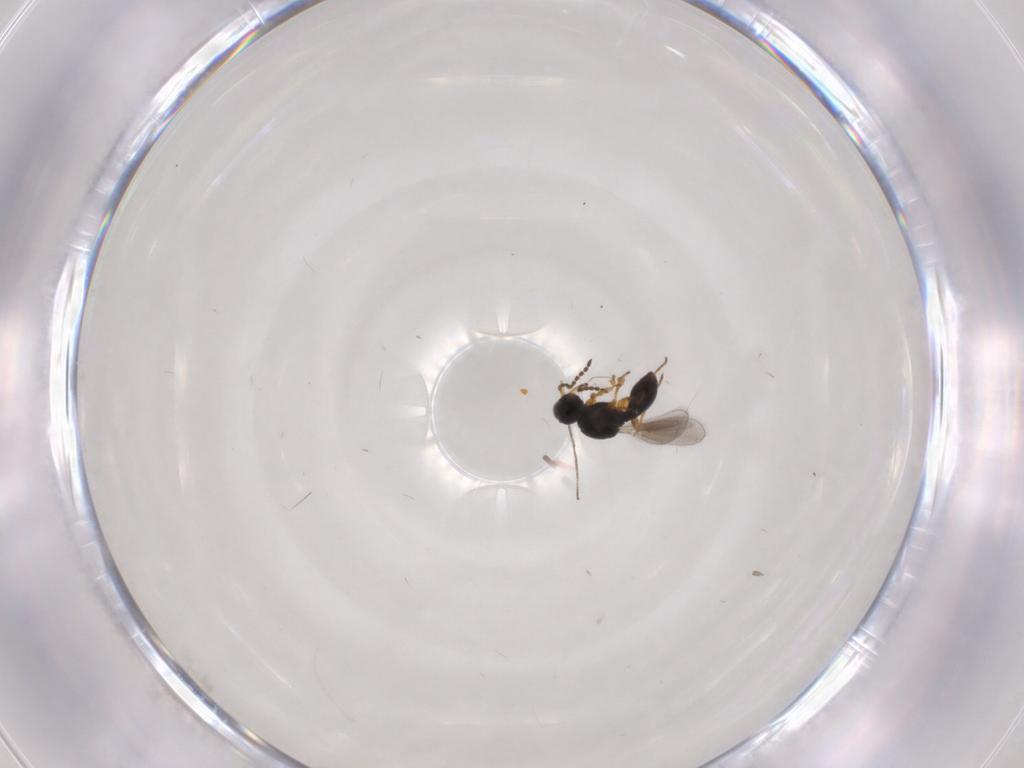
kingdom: Animalia
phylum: Arthropoda
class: Insecta
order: Hymenoptera
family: Platygastridae
